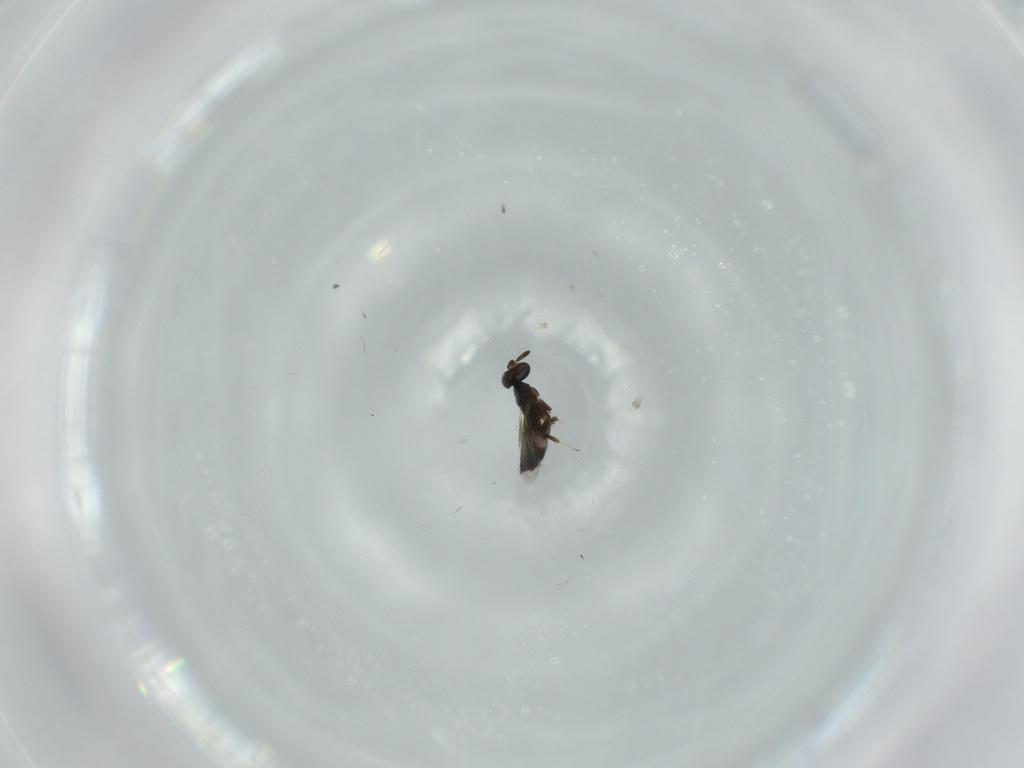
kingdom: Animalia
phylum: Arthropoda
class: Insecta
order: Hymenoptera
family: Signiphoridae
